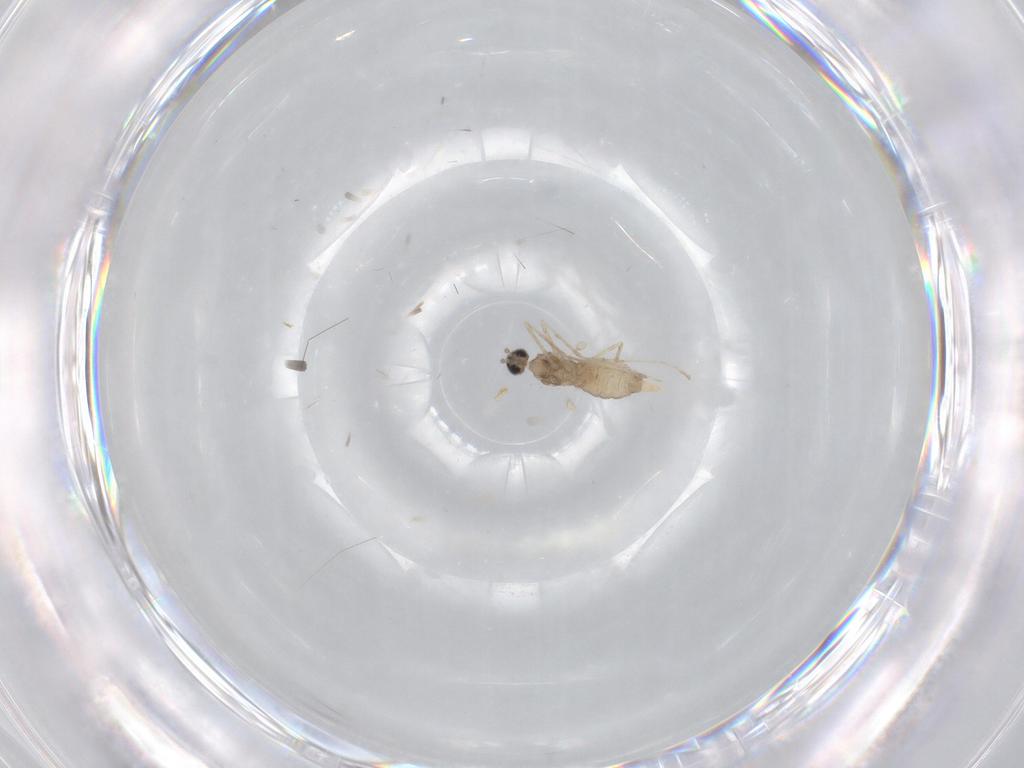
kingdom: Animalia
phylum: Arthropoda
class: Insecta
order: Diptera
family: Cecidomyiidae
